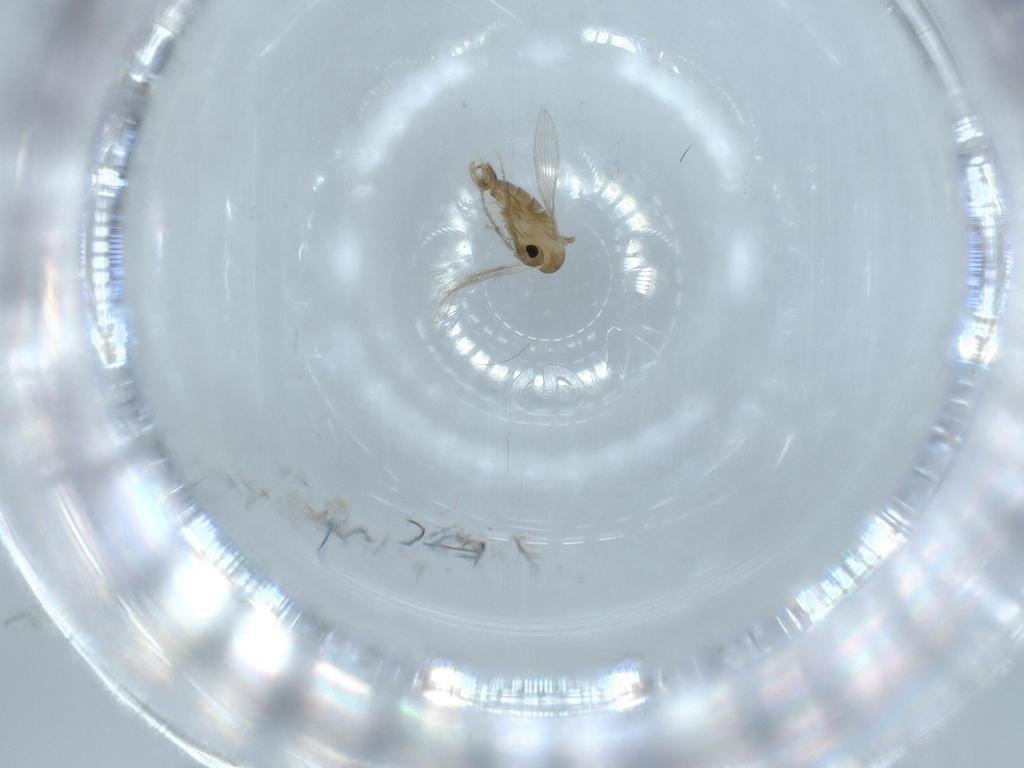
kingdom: Animalia
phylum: Arthropoda
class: Insecta
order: Diptera
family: Psychodidae
